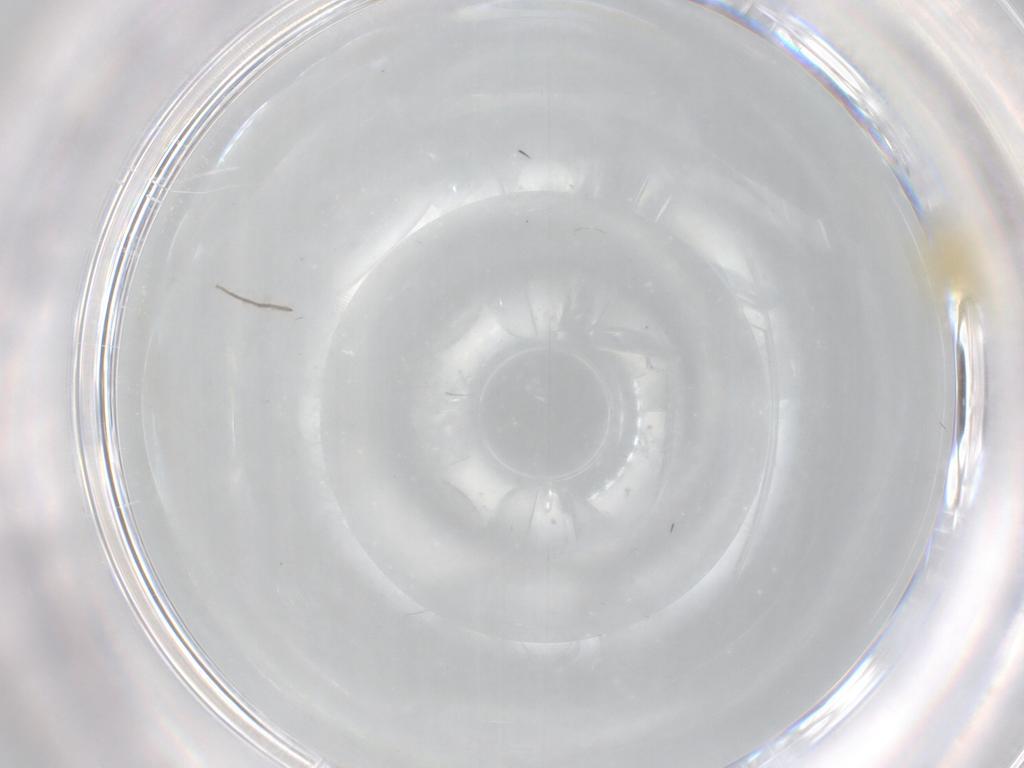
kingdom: Animalia
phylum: Arthropoda
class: Insecta
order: Hemiptera
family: Aleyrodidae
